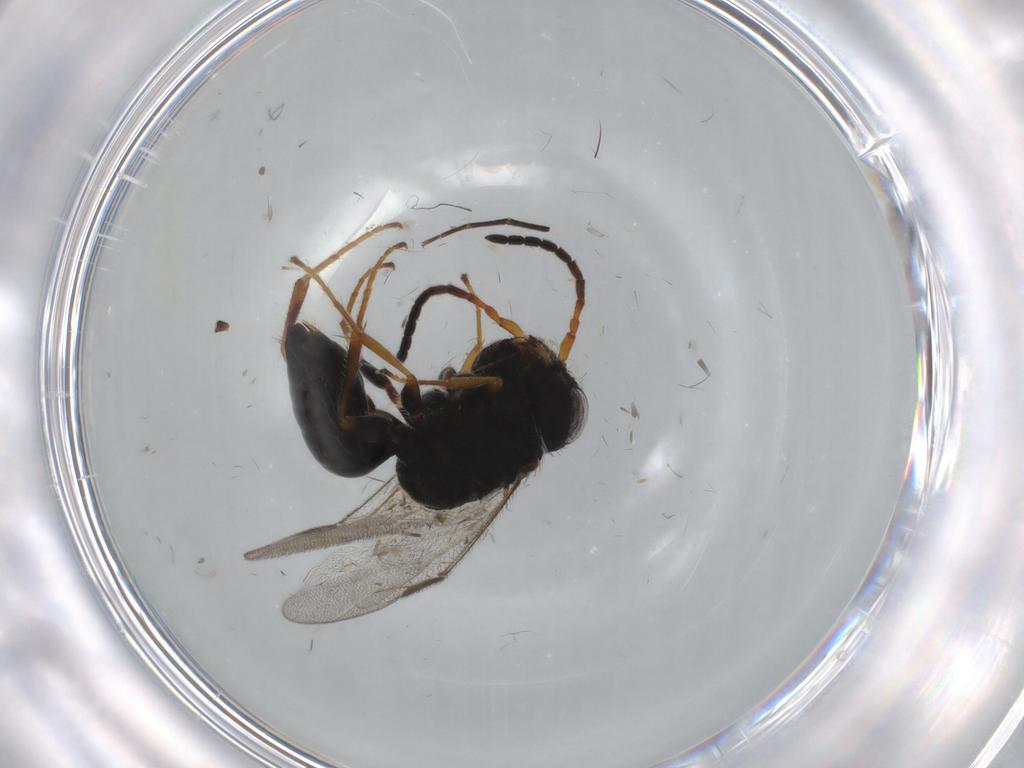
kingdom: Animalia
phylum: Arthropoda
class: Insecta
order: Hymenoptera
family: Dryinidae
